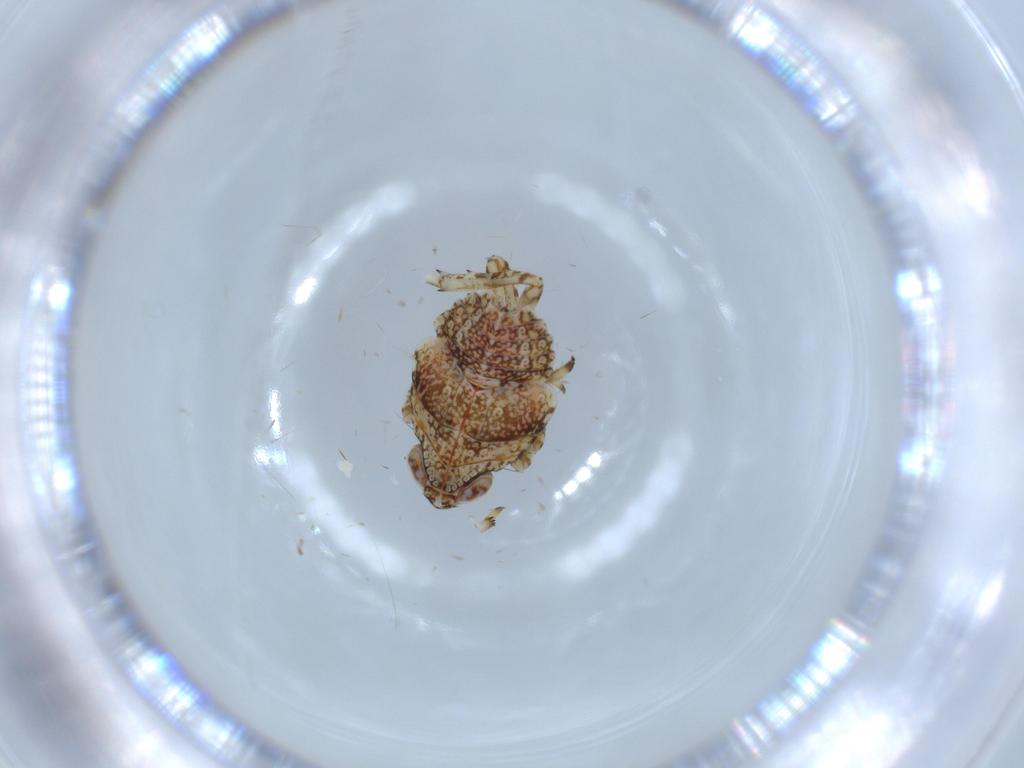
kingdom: Animalia
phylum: Arthropoda
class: Insecta
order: Hemiptera
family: Issidae
